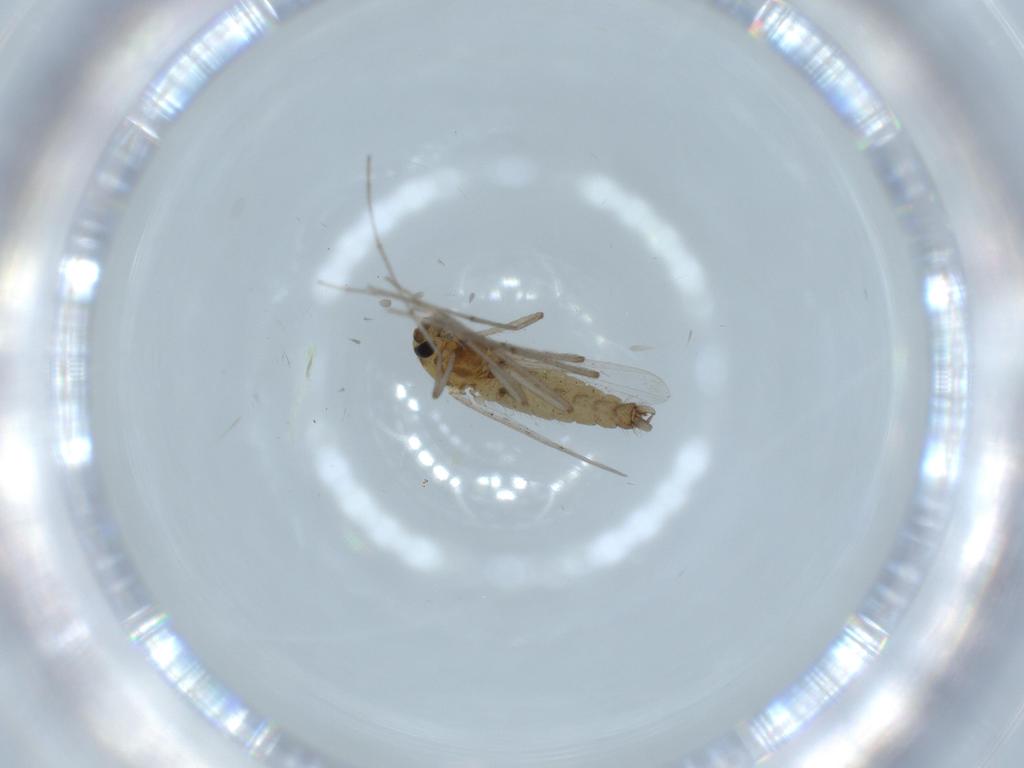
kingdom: Animalia
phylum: Arthropoda
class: Insecta
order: Diptera
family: Chironomidae
